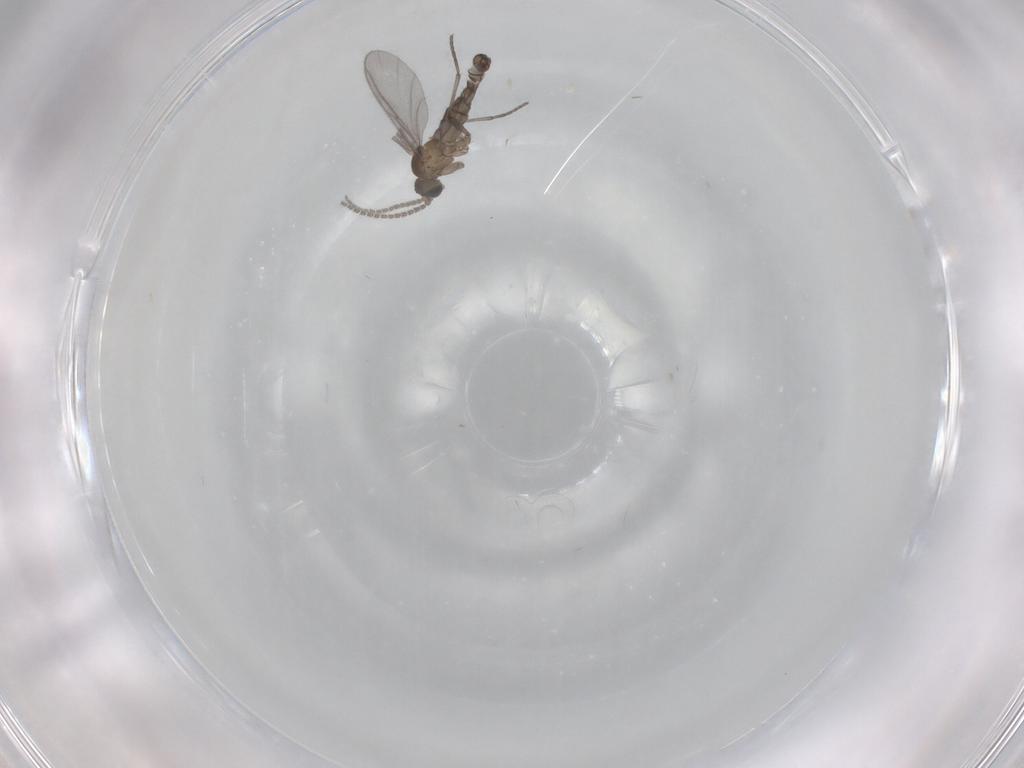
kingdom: Animalia
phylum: Arthropoda
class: Insecta
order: Diptera
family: Sciaridae
